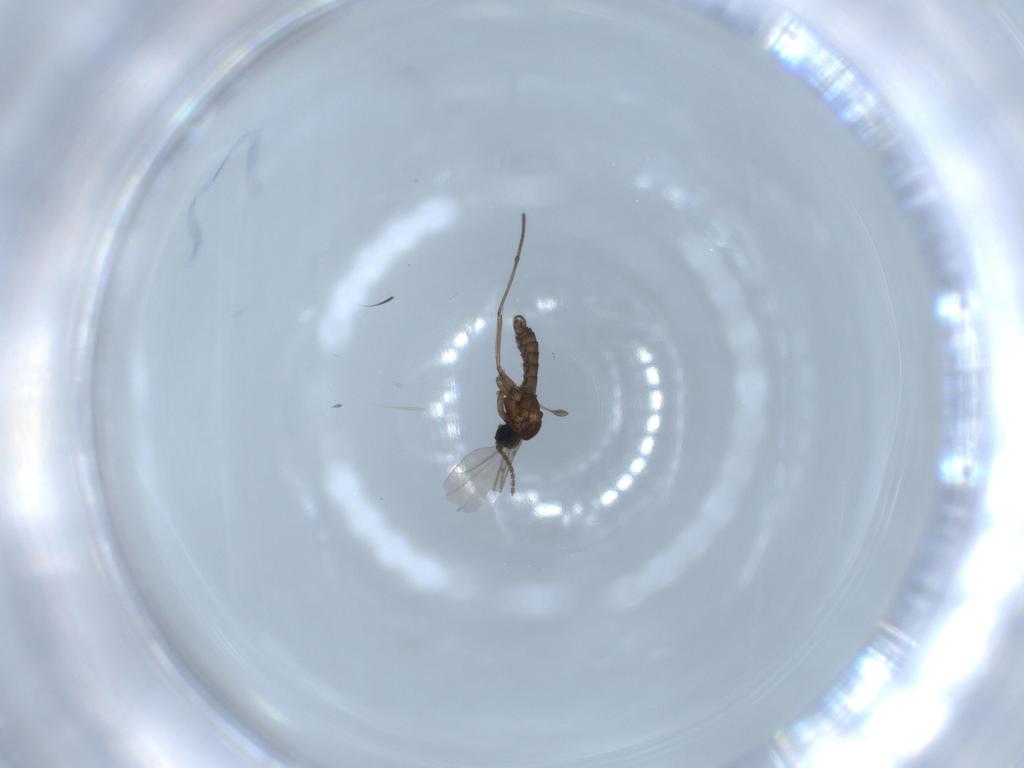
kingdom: Animalia
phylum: Arthropoda
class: Insecta
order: Diptera
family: Sciaridae
